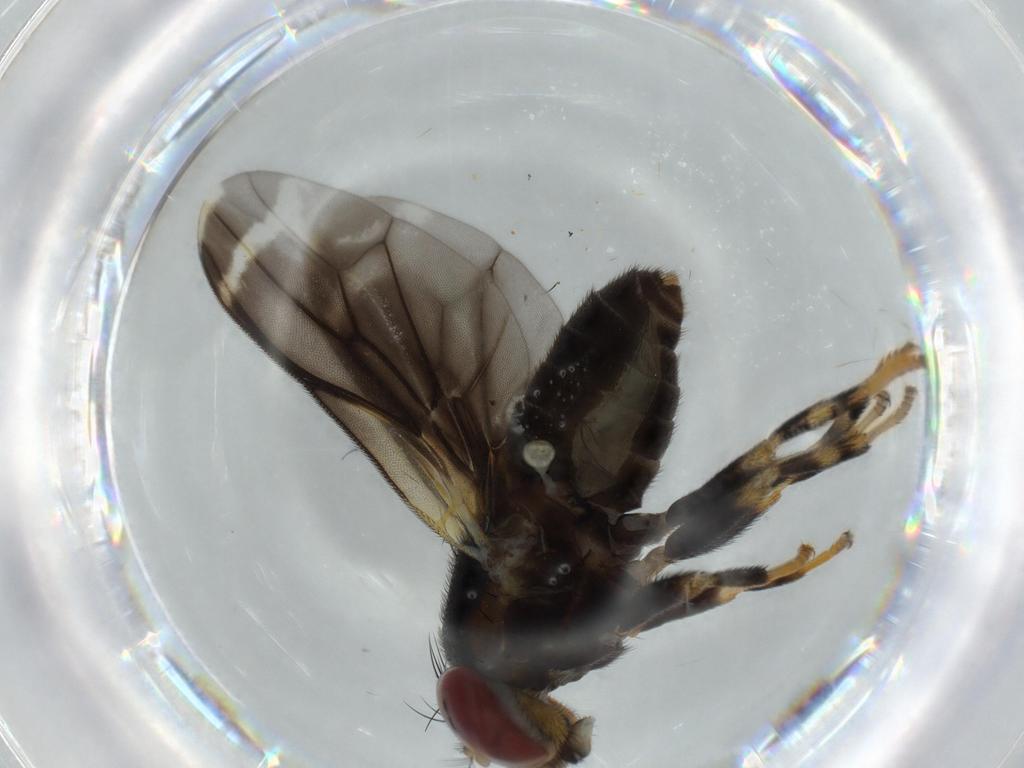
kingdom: Animalia
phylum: Arthropoda
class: Insecta
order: Diptera
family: Periscelididae
